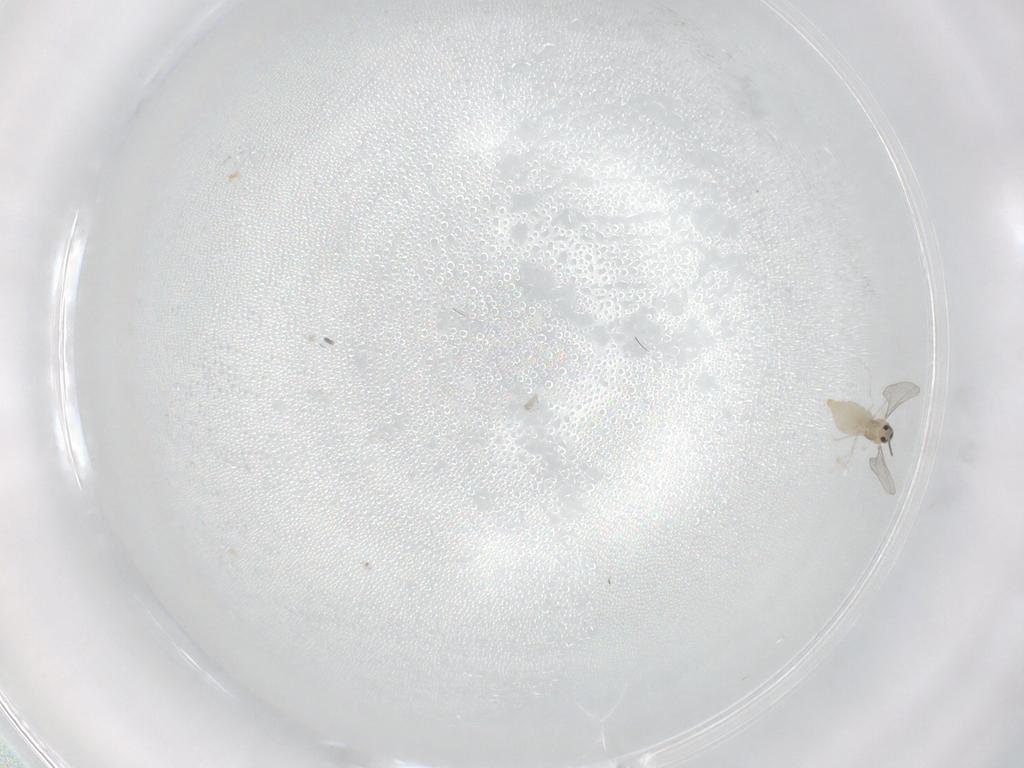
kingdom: Animalia
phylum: Arthropoda
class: Insecta
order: Diptera
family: Cecidomyiidae
